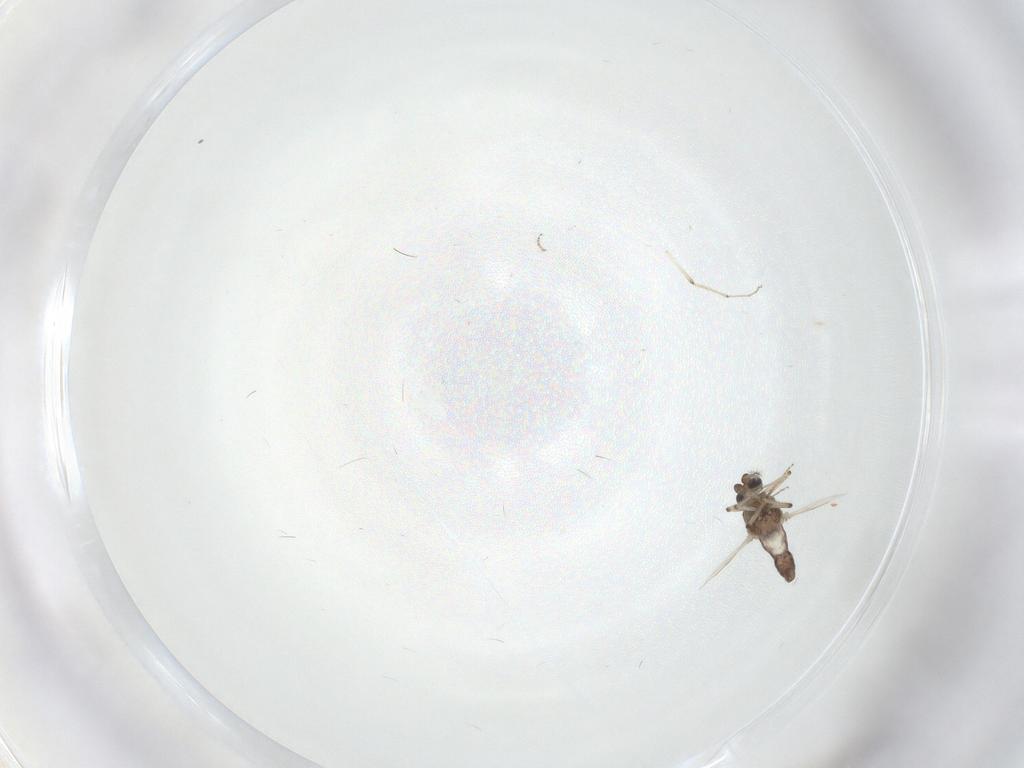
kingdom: Animalia
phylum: Arthropoda
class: Insecta
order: Diptera
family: Ceratopogonidae
